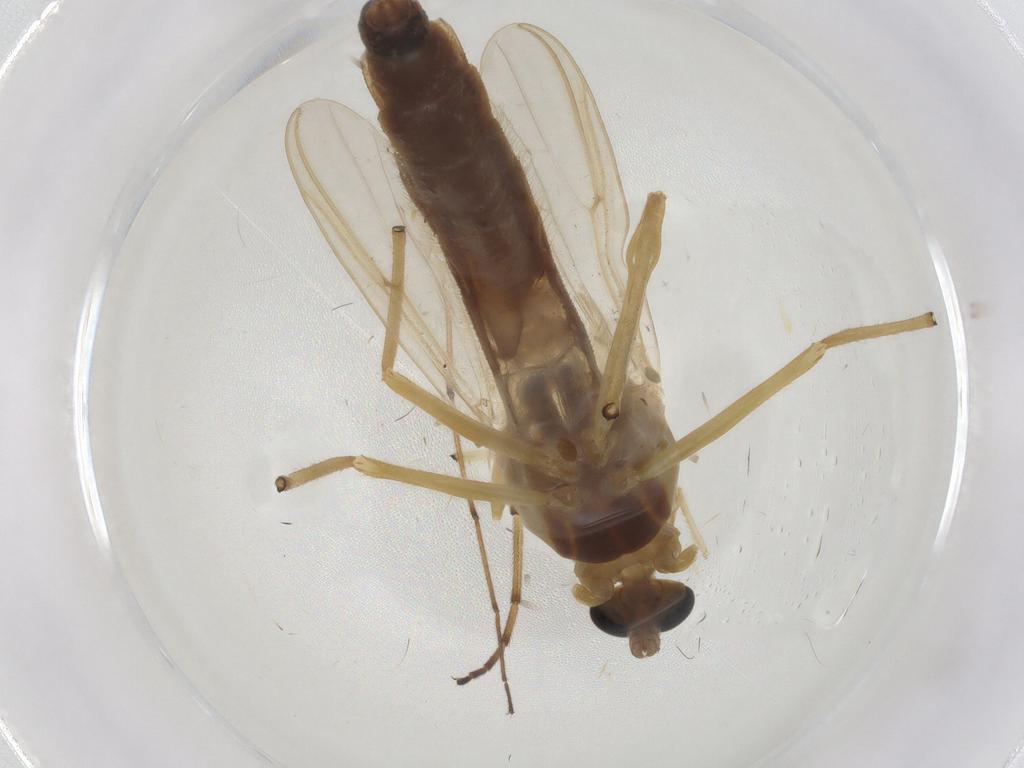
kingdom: Animalia
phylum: Arthropoda
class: Insecta
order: Diptera
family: Chironomidae
